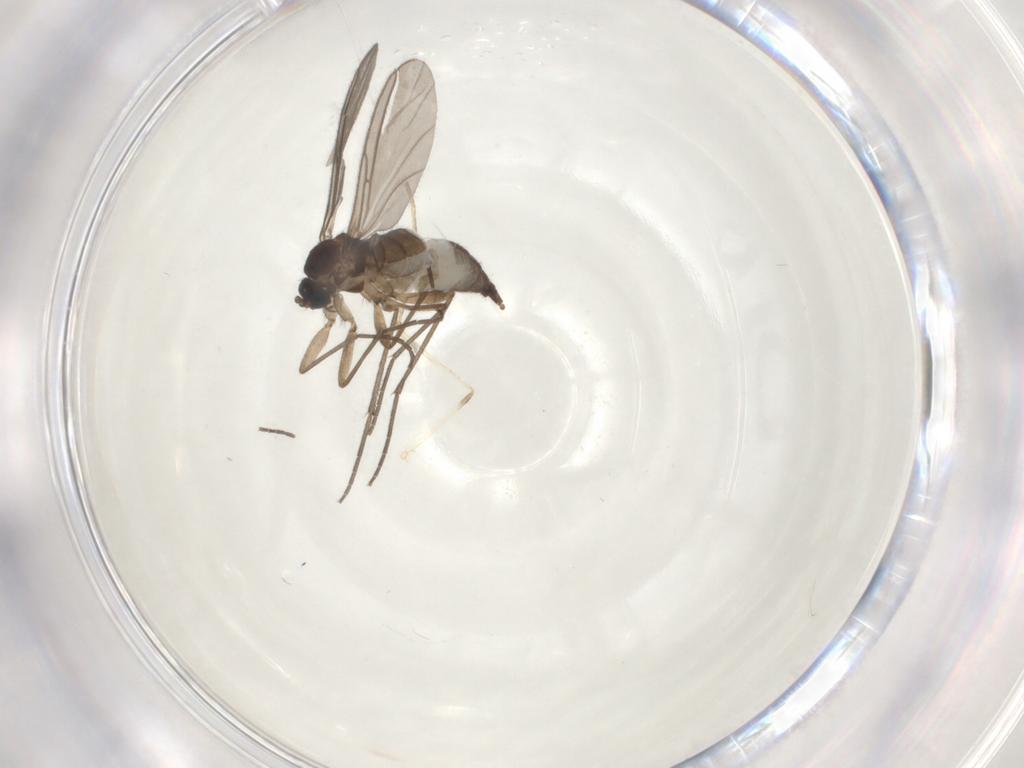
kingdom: Animalia
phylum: Arthropoda
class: Insecta
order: Diptera
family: Sciaridae
